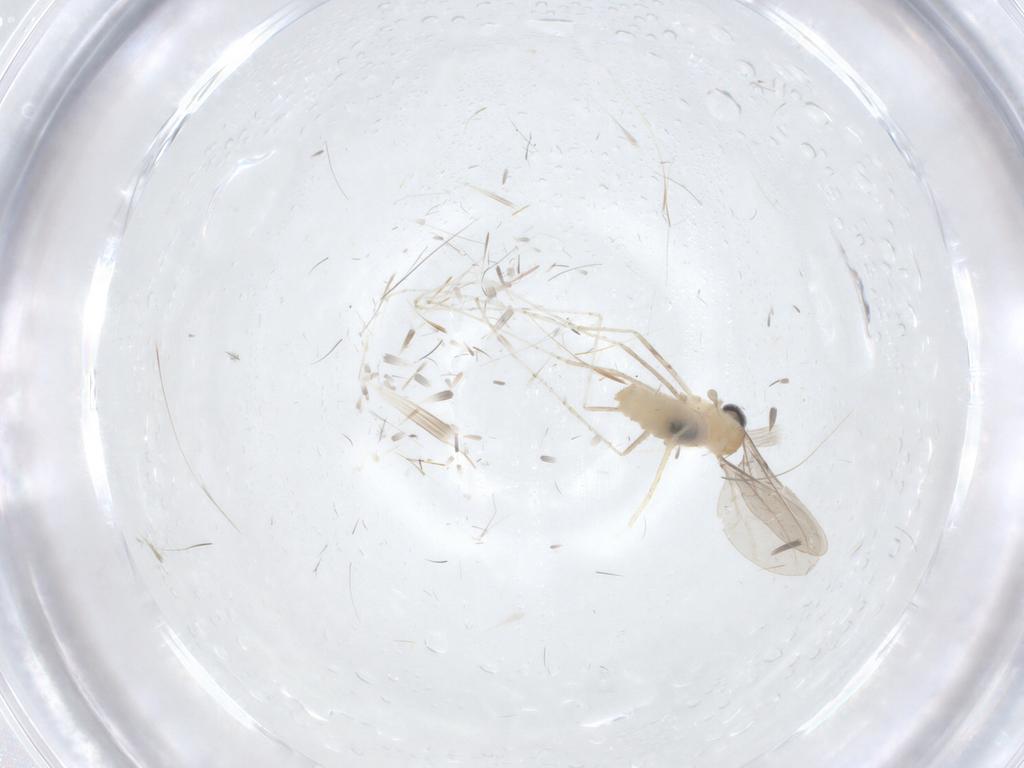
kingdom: Animalia
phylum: Arthropoda
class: Insecta
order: Diptera
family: Cecidomyiidae
